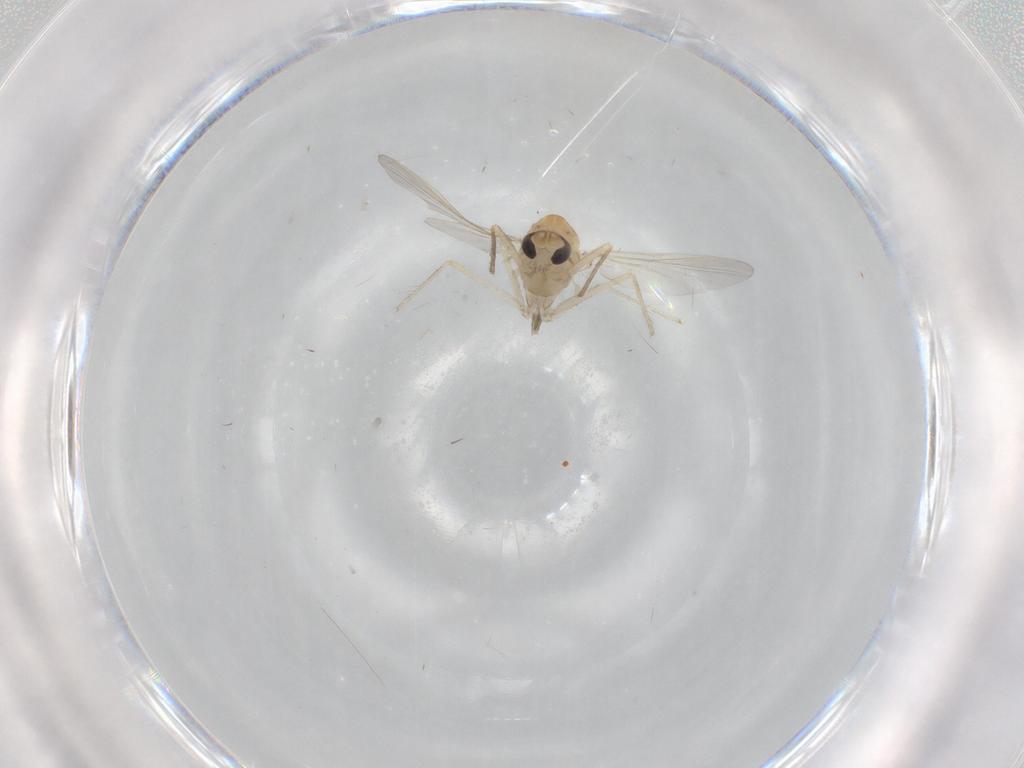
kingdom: Animalia
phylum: Arthropoda
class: Insecta
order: Diptera
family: Chironomidae
